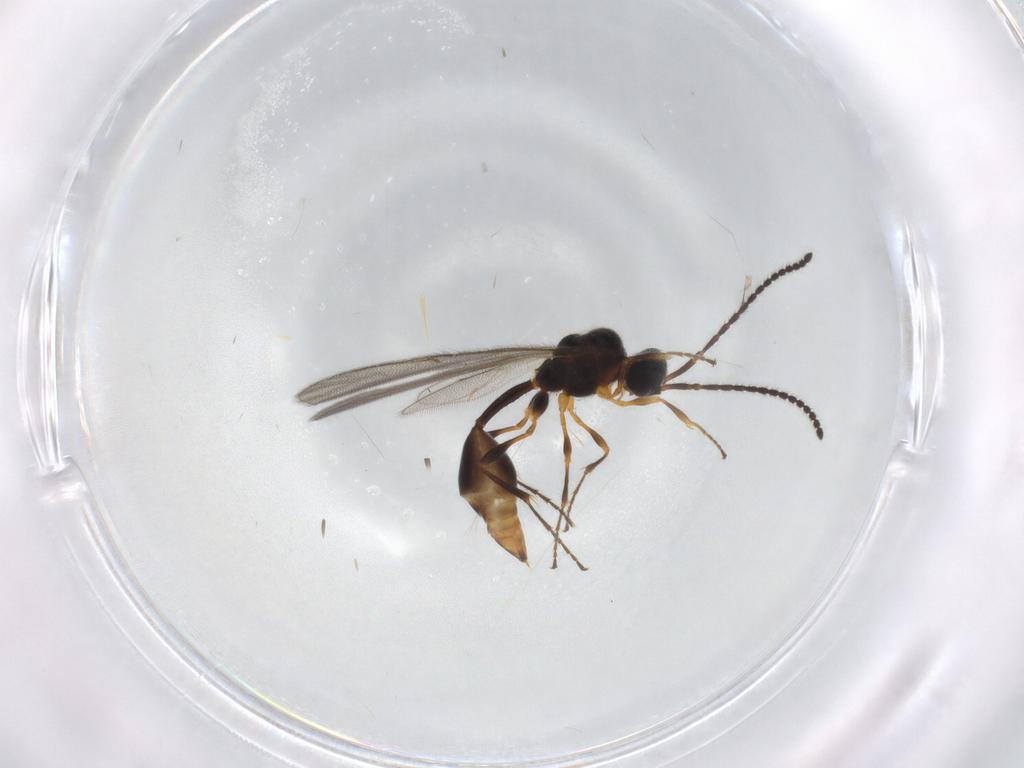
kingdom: Animalia
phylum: Arthropoda
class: Insecta
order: Hymenoptera
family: Diapriidae
